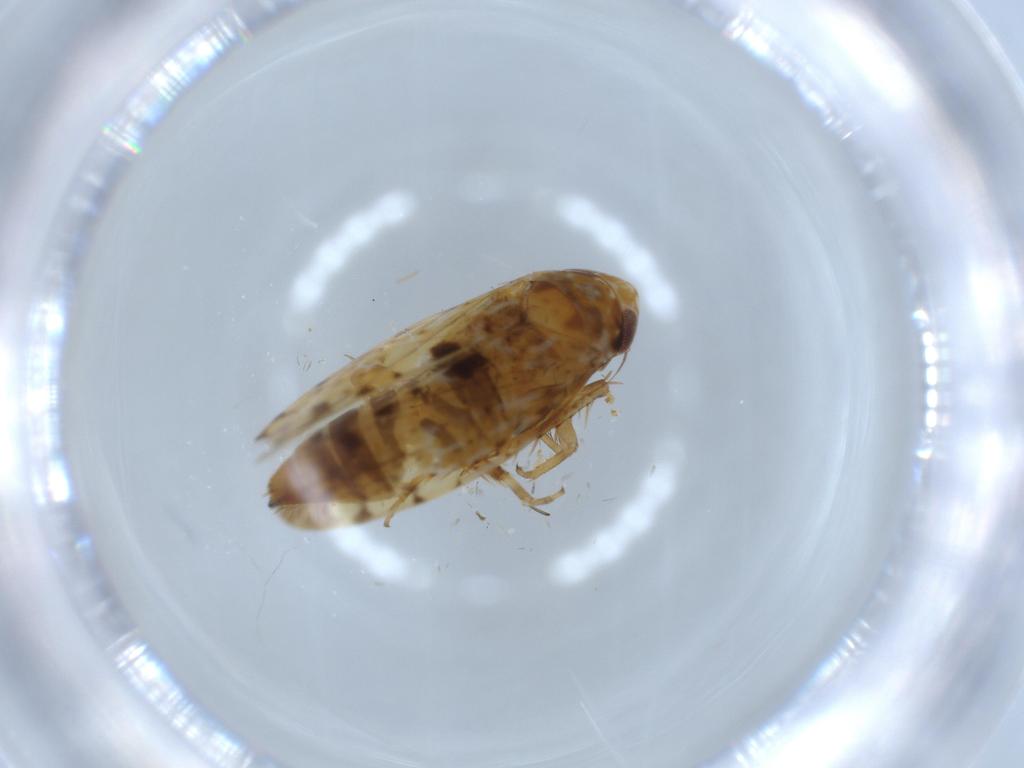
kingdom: Animalia
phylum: Arthropoda
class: Insecta
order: Hemiptera
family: Cicadellidae
